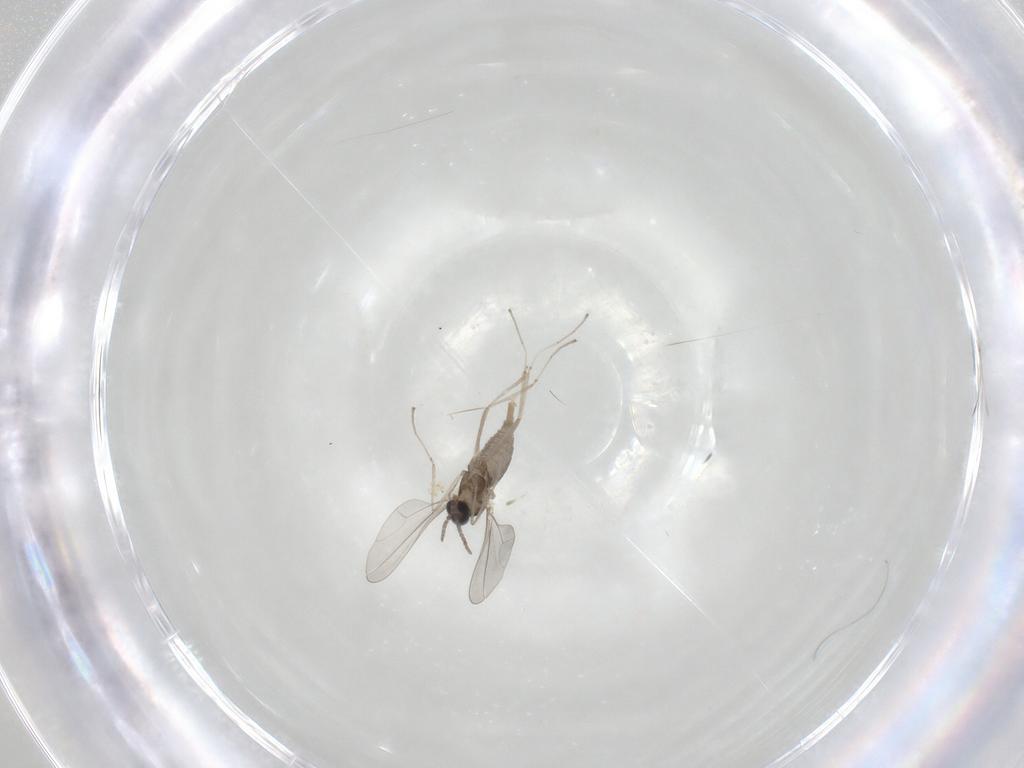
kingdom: Animalia
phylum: Arthropoda
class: Insecta
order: Diptera
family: Cecidomyiidae
